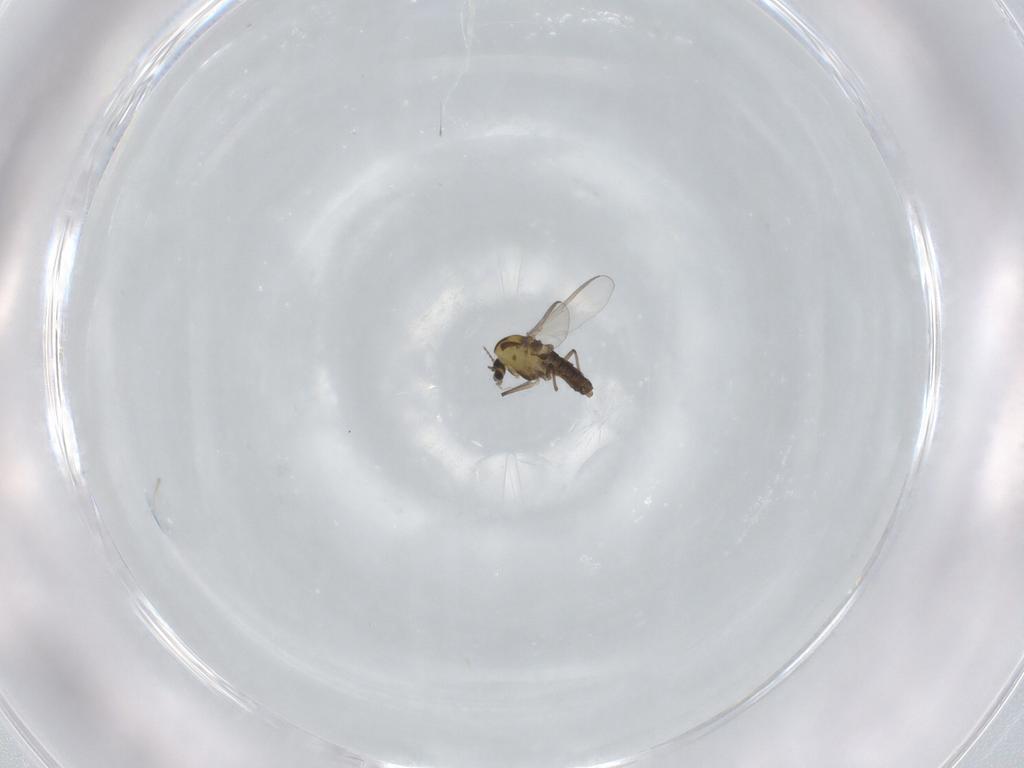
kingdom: Animalia
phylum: Arthropoda
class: Insecta
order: Diptera
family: Chironomidae
